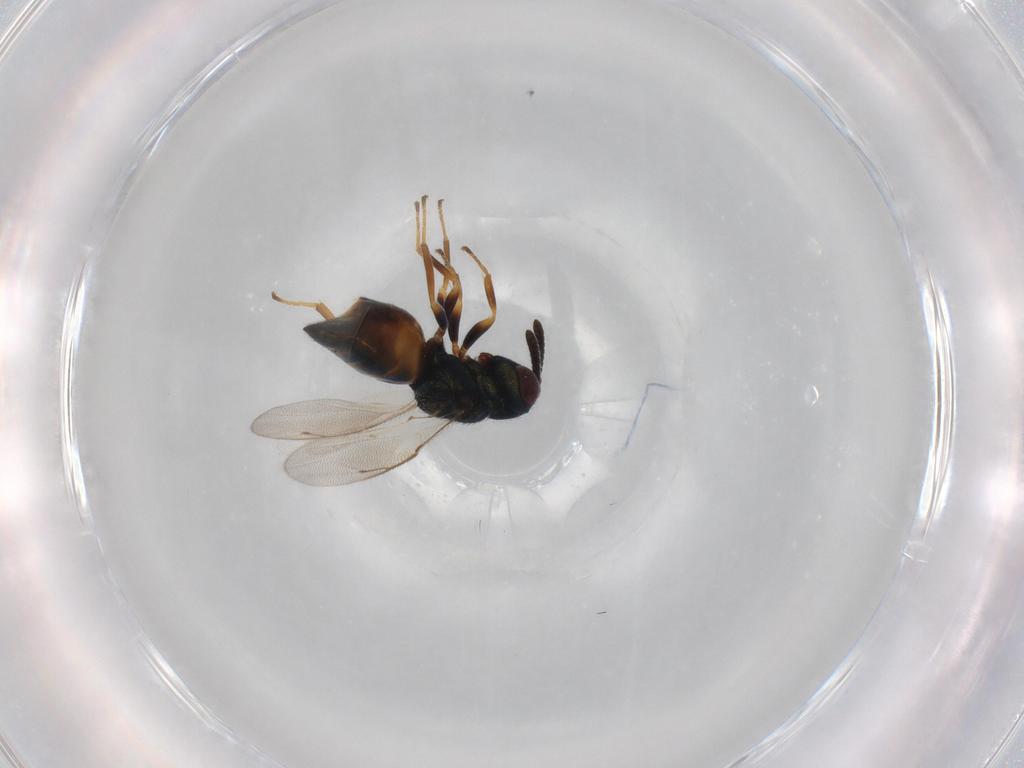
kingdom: Animalia
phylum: Arthropoda
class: Insecta
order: Hymenoptera
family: Pteromalidae
